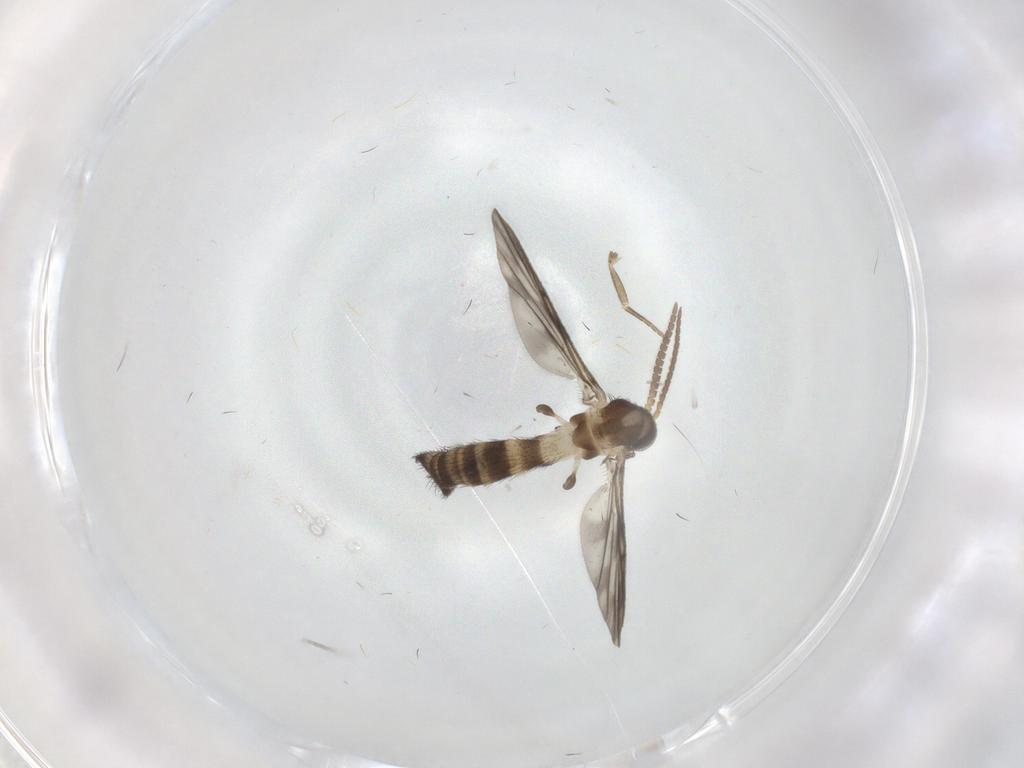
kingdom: Animalia
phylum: Arthropoda
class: Insecta
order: Diptera
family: Keroplatidae
